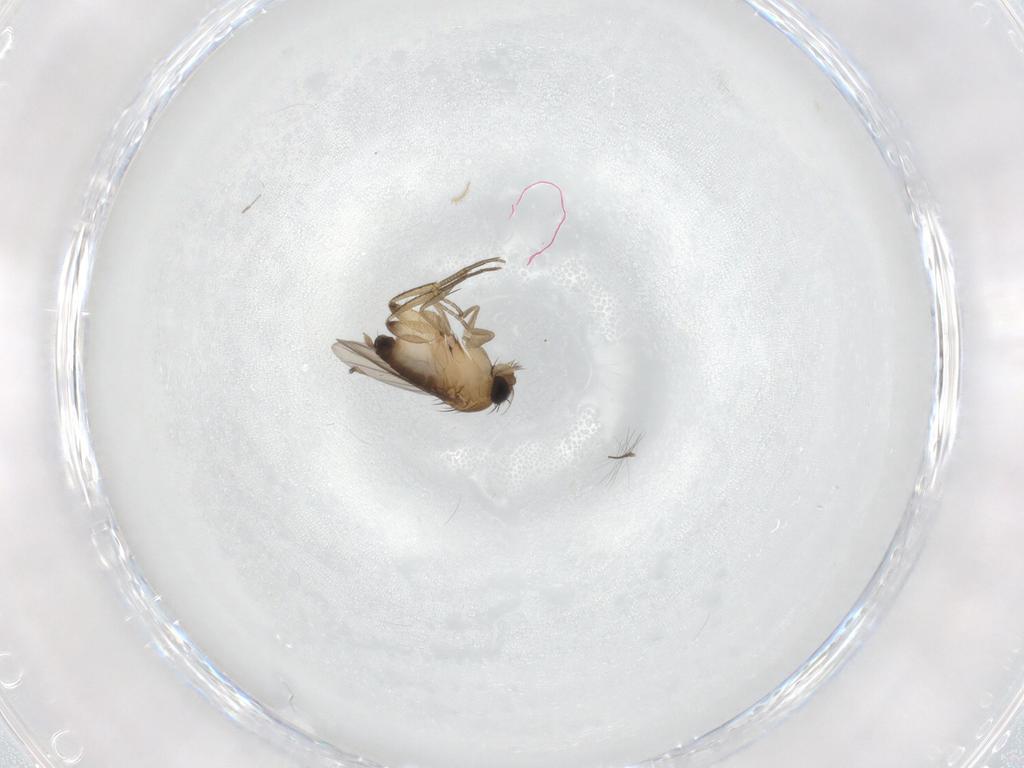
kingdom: Animalia
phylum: Arthropoda
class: Insecta
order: Diptera
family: Phoridae
